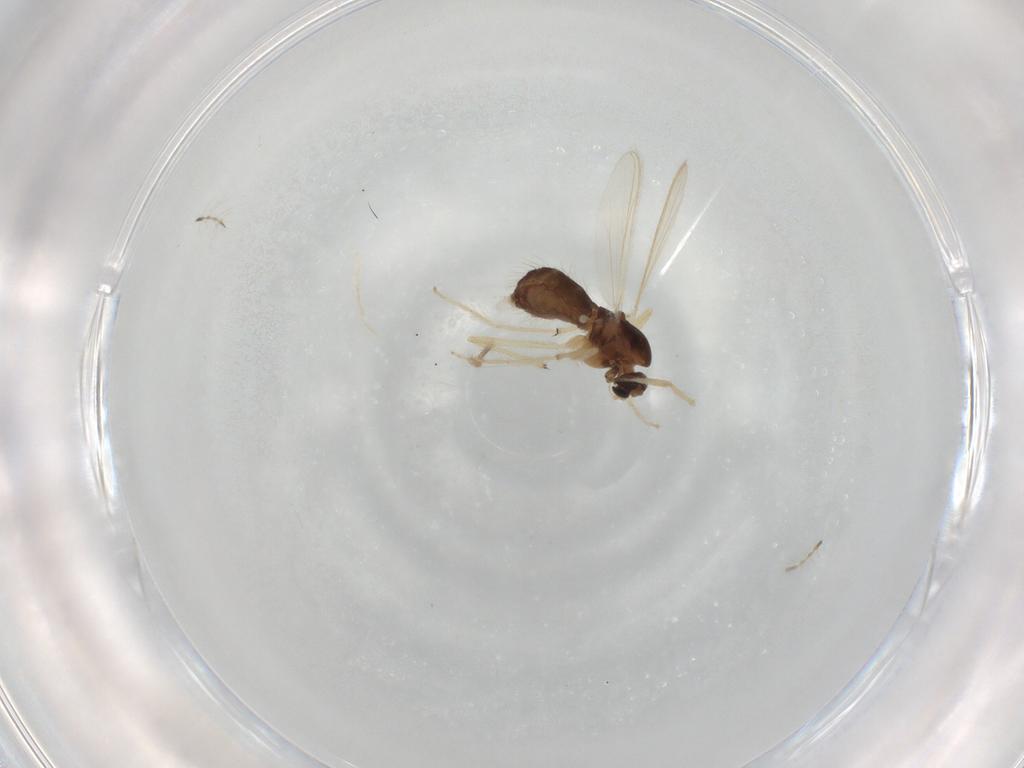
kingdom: Animalia
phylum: Arthropoda
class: Insecta
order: Diptera
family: Chironomidae
